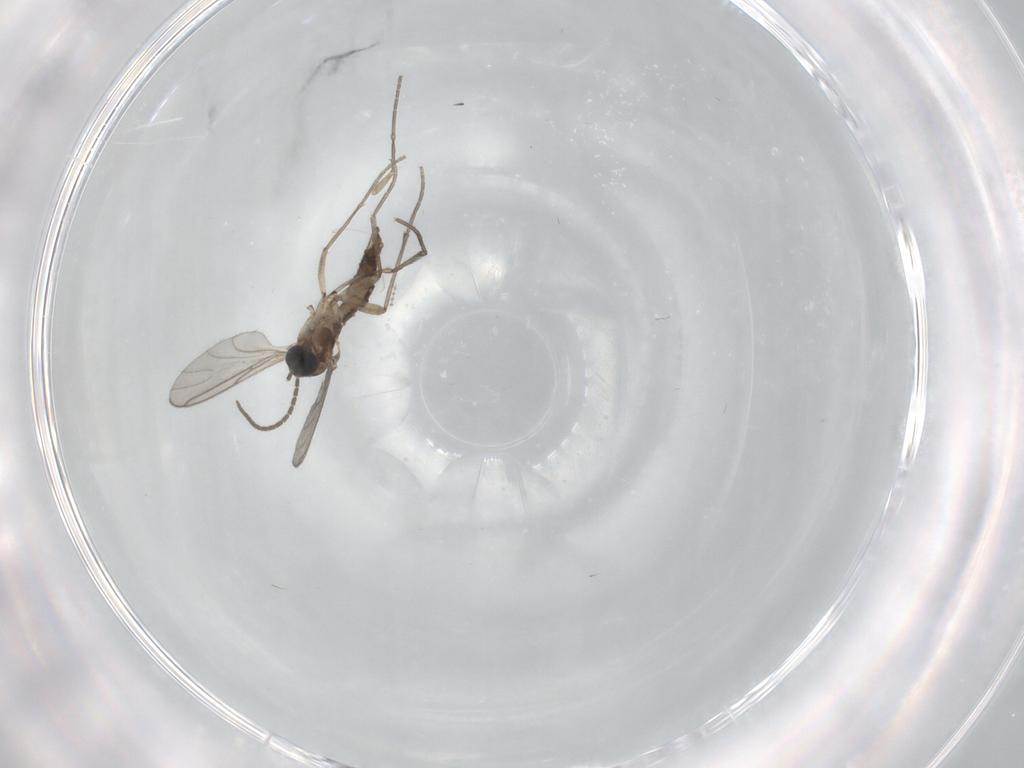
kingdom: Animalia
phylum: Arthropoda
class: Insecta
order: Diptera
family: Sciaridae
